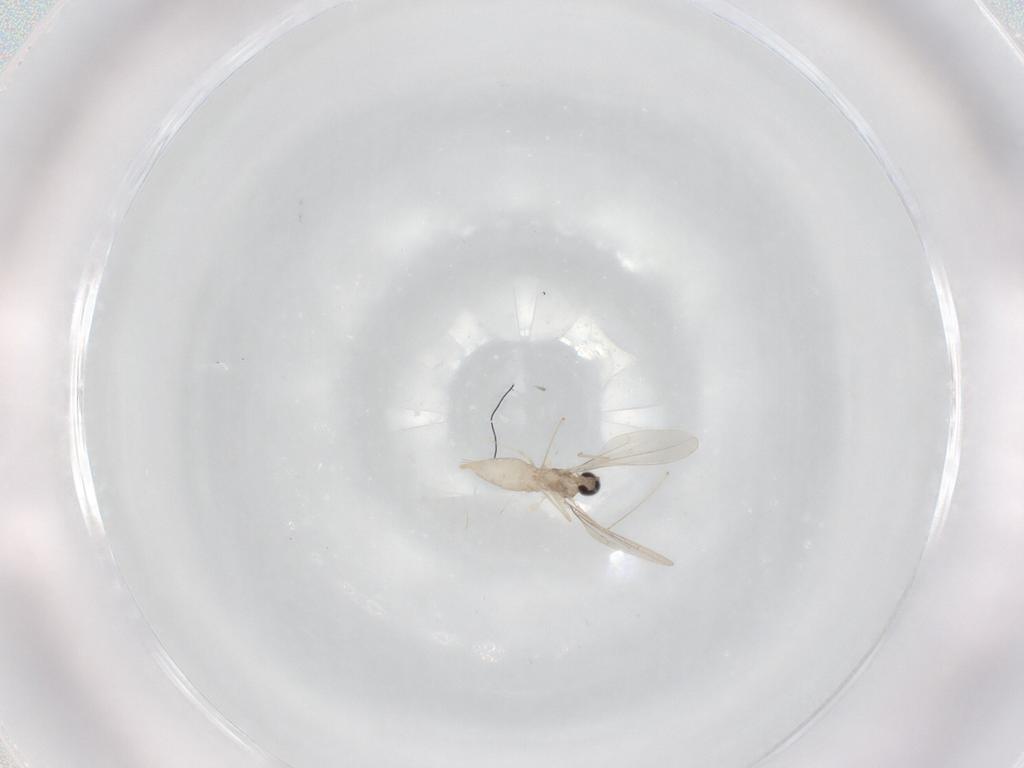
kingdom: Animalia
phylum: Arthropoda
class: Insecta
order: Diptera
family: Cecidomyiidae
